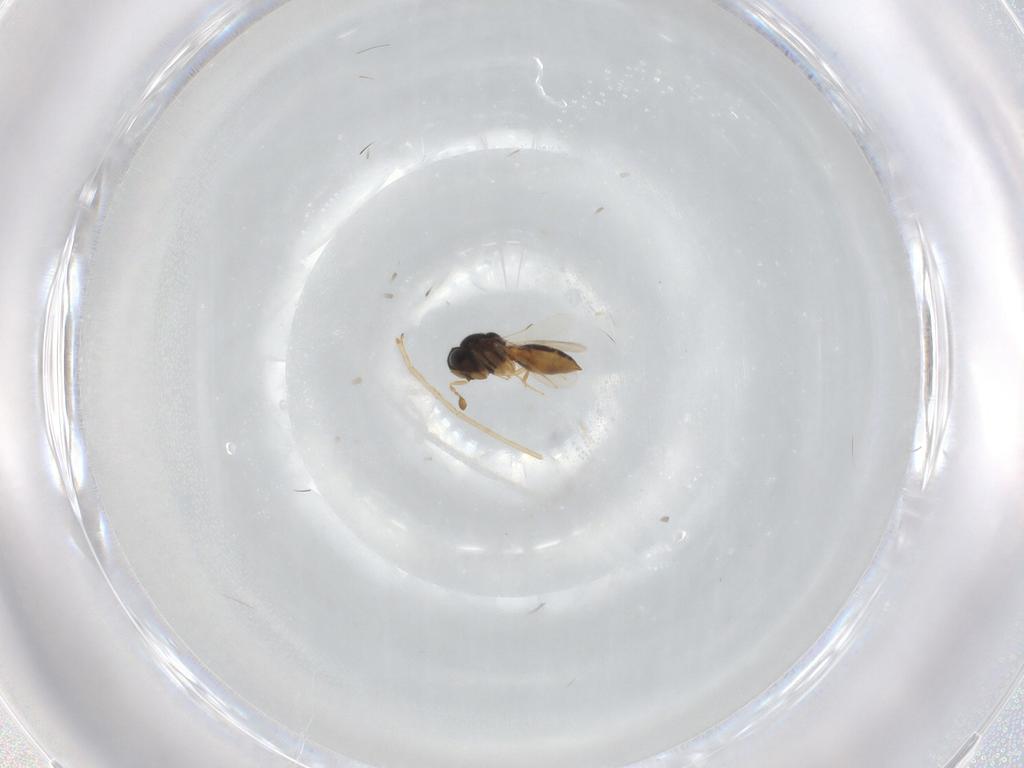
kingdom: Animalia
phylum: Arthropoda
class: Insecta
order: Hymenoptera
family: Scelionidae
